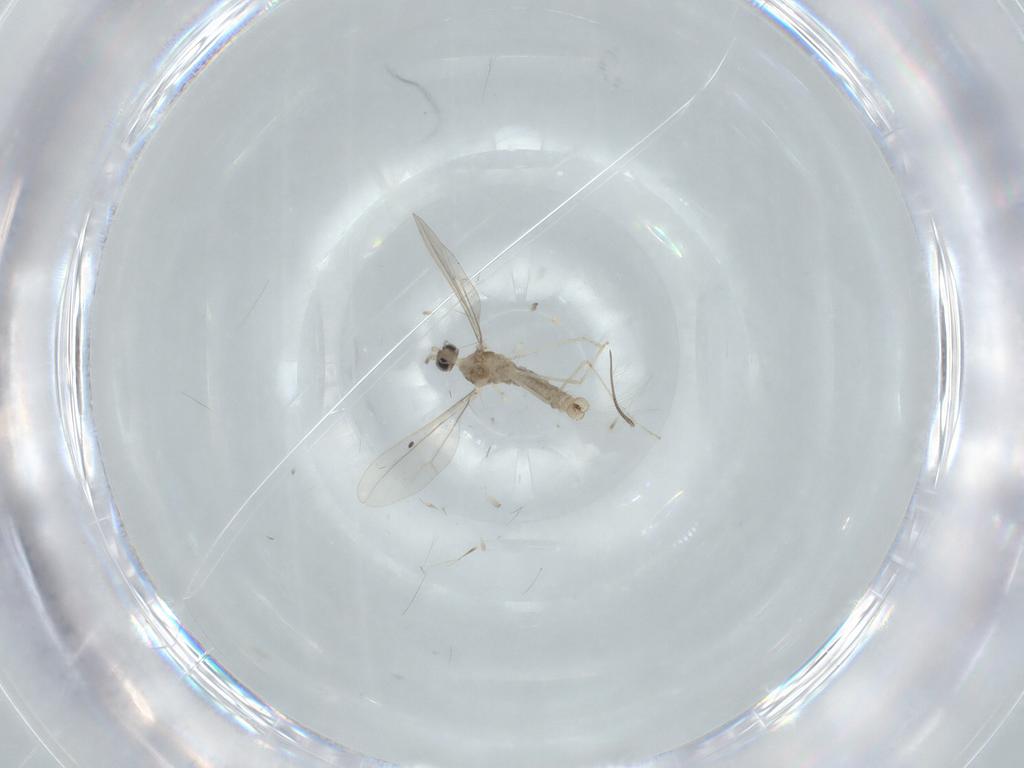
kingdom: Animalia
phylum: Arthropoda
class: Insecta
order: Diptera
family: Cecidomyiidae
